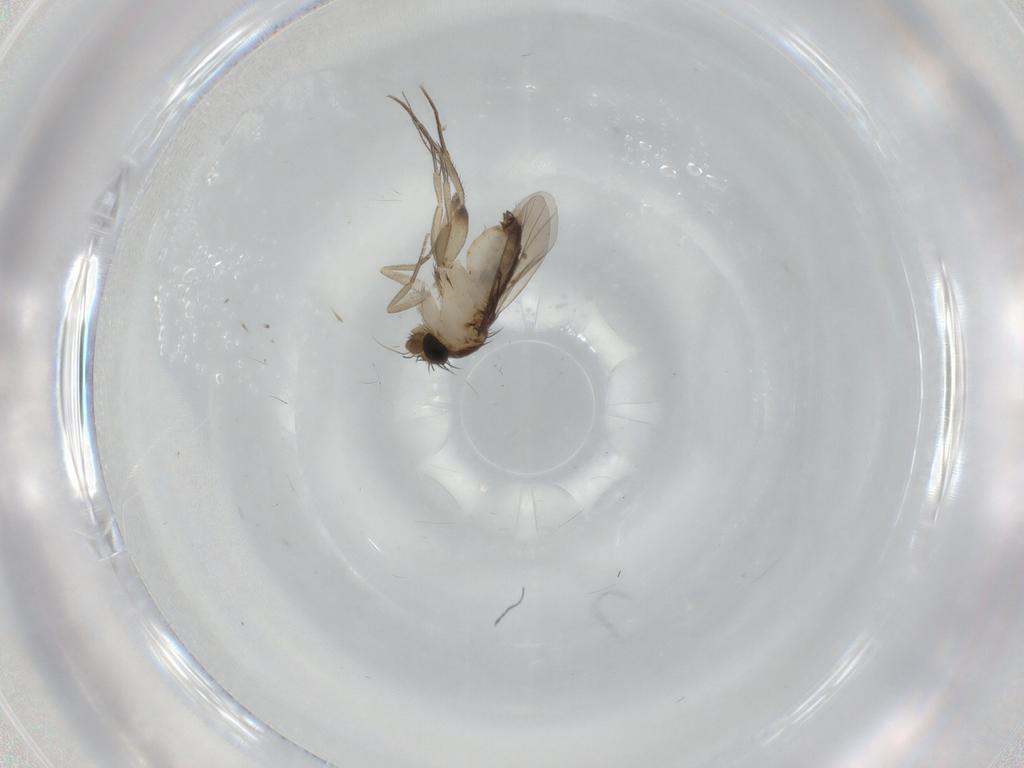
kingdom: Animalia
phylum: Arthropoda
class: Insecta
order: Diptera
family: Phoridae
